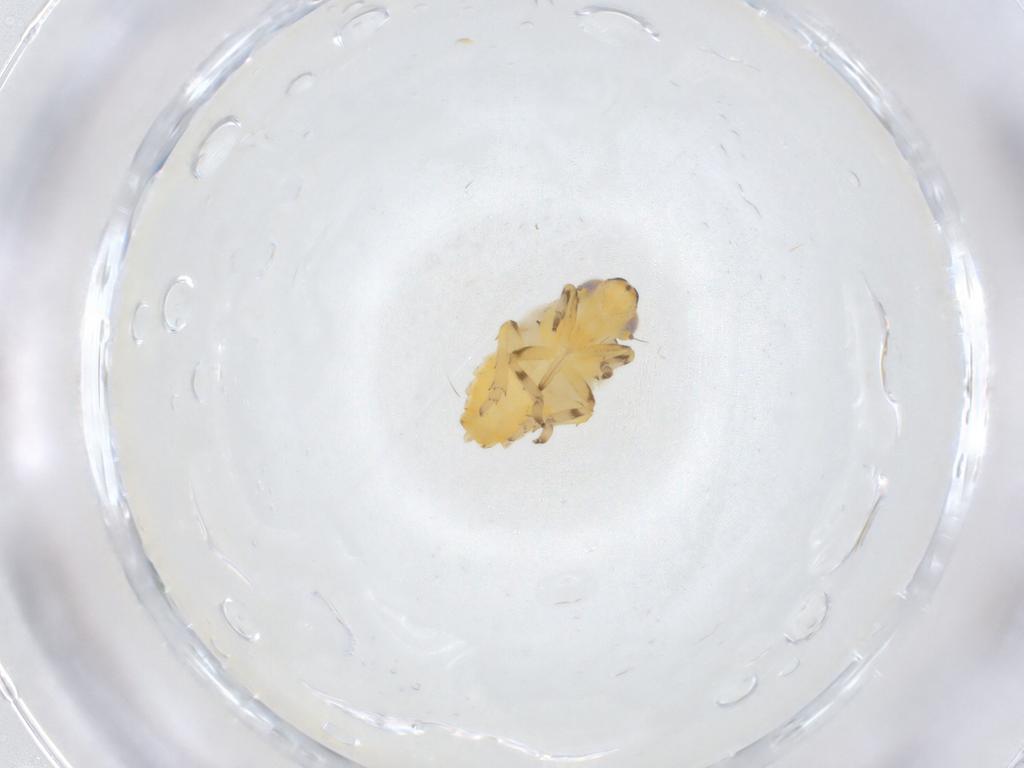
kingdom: Animalia
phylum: Arthropoda
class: Insecta
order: Hemiptera
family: Issidae
